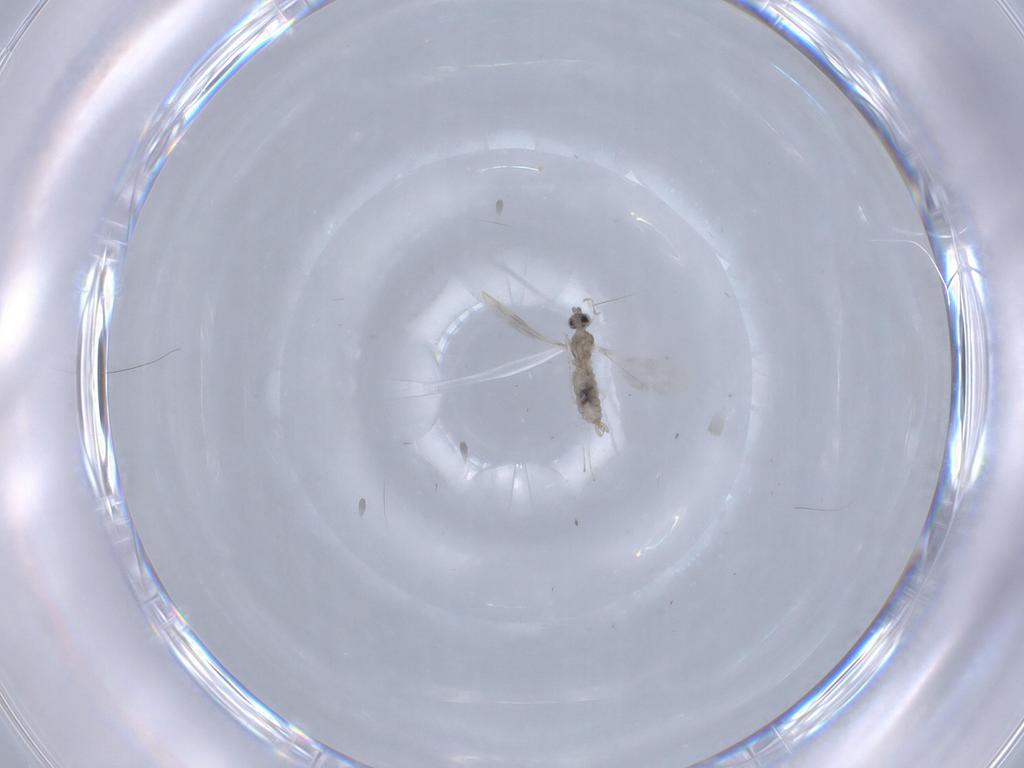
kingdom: Animalia
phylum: Arthropoda
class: Insecta
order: Diptera
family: Cecidomyiidae
